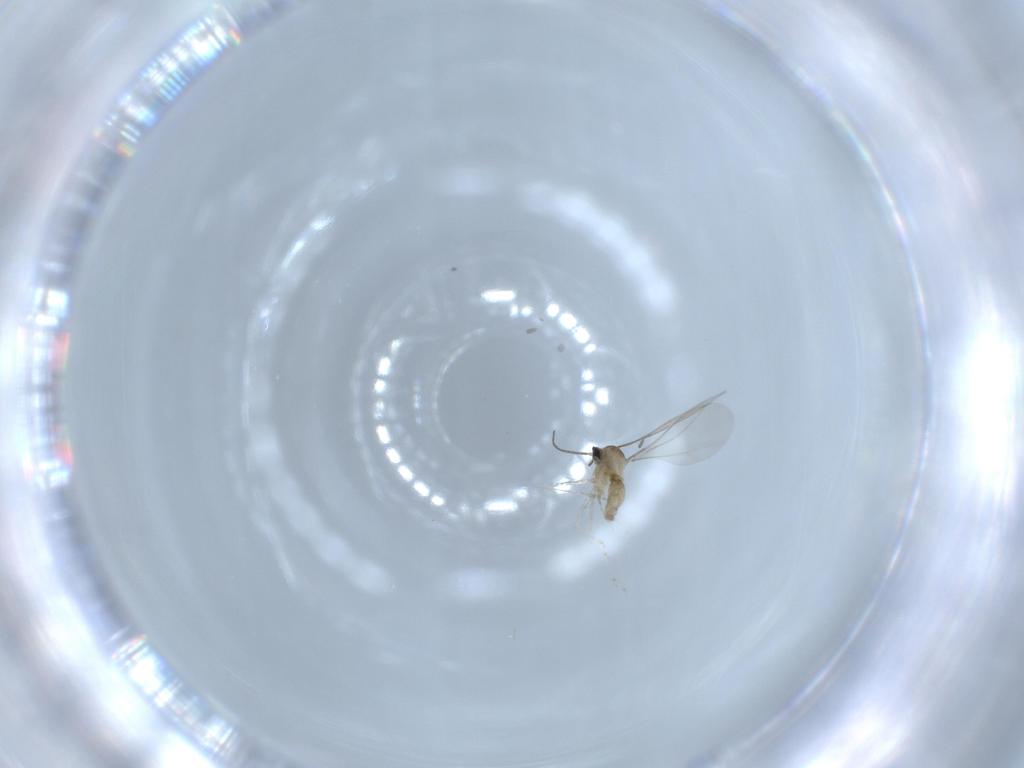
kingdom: Animalia
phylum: Arthropoda
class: Insecta
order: Diptera
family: Cecidomyiidae
